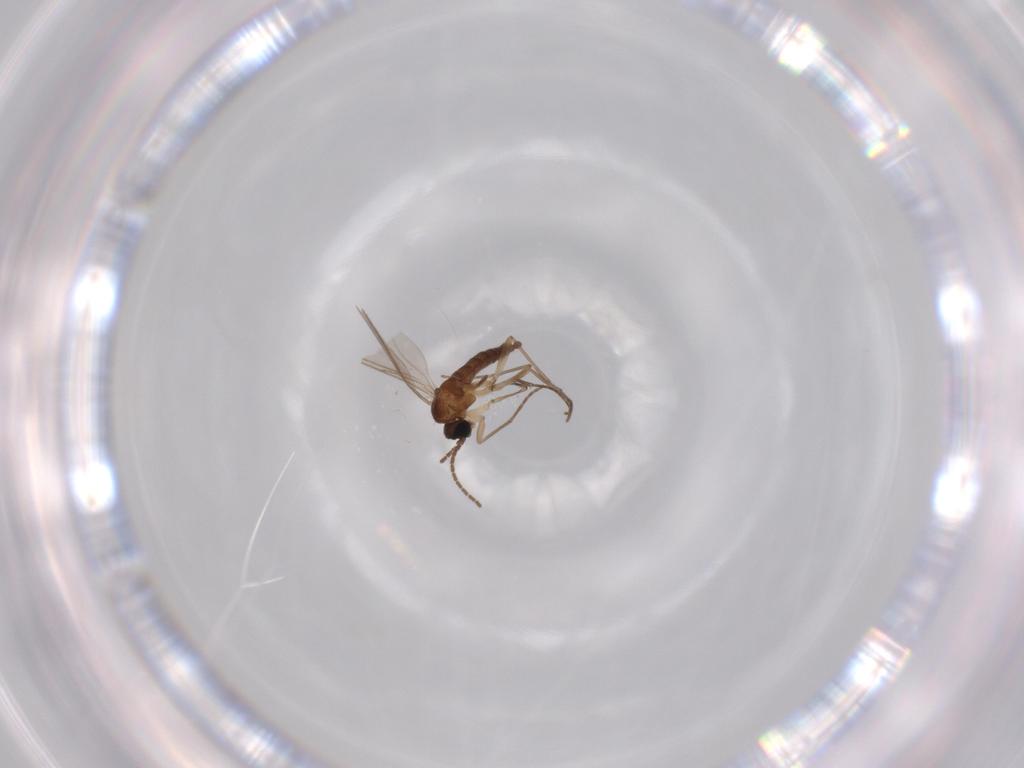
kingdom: Animalia
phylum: Arthropoda
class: Insecta
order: Diptera
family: Sciaridae
